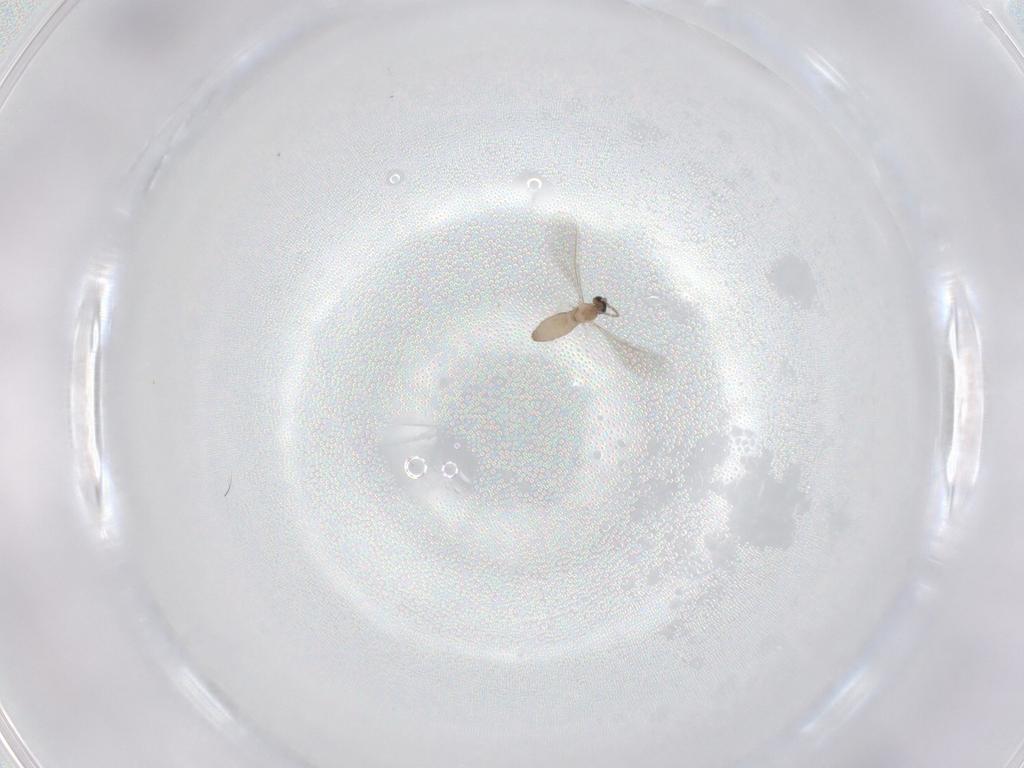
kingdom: Animalia
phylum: Arthropoda
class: Insecta
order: Diptera
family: Cecidomyiidae
